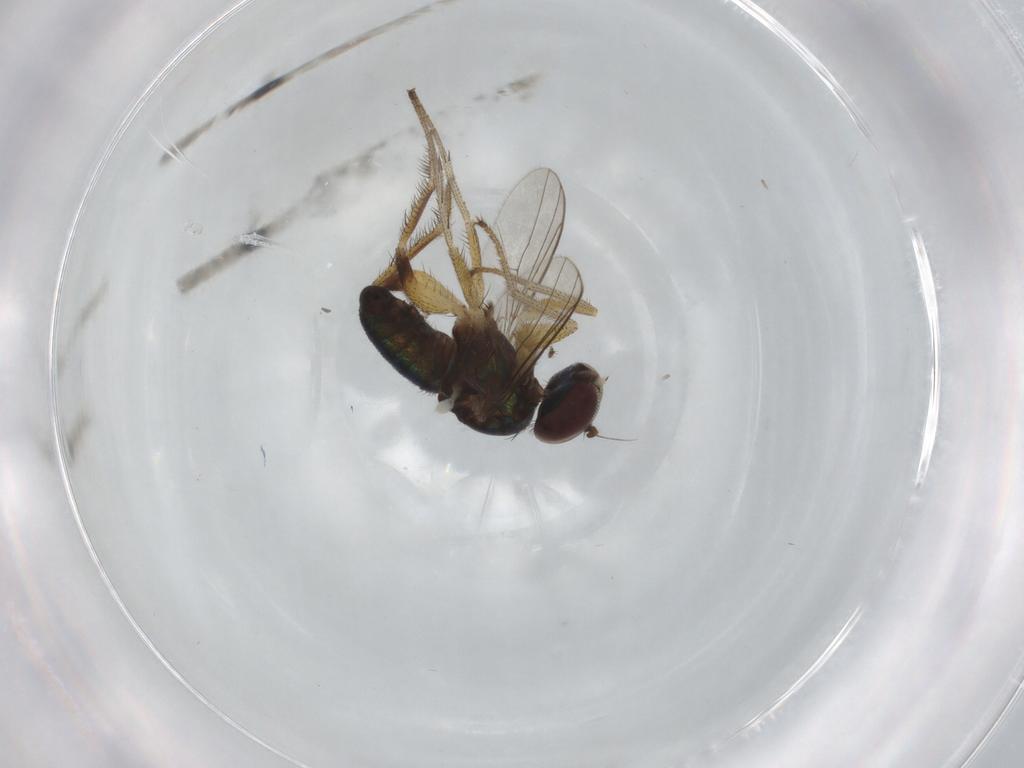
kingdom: Animalia
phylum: Arthropoda
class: Insecta
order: Diptera
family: Dolichopodidae
